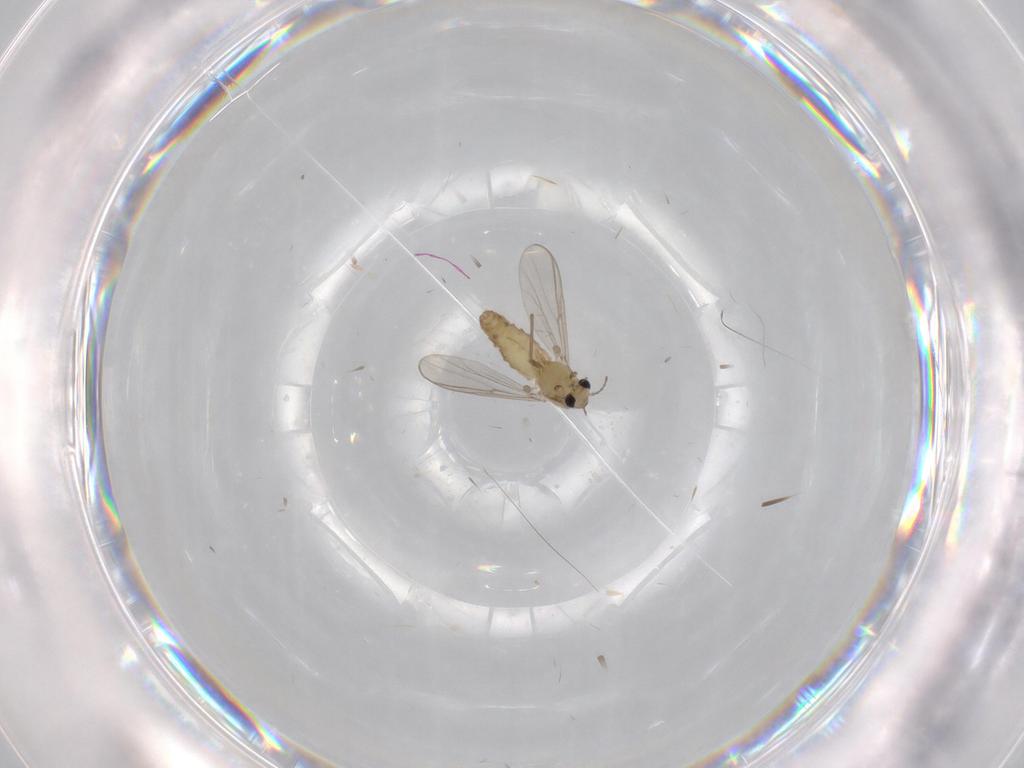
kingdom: Animalia
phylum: Arthropoda
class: Insecta
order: Diptera
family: Chironomidae
